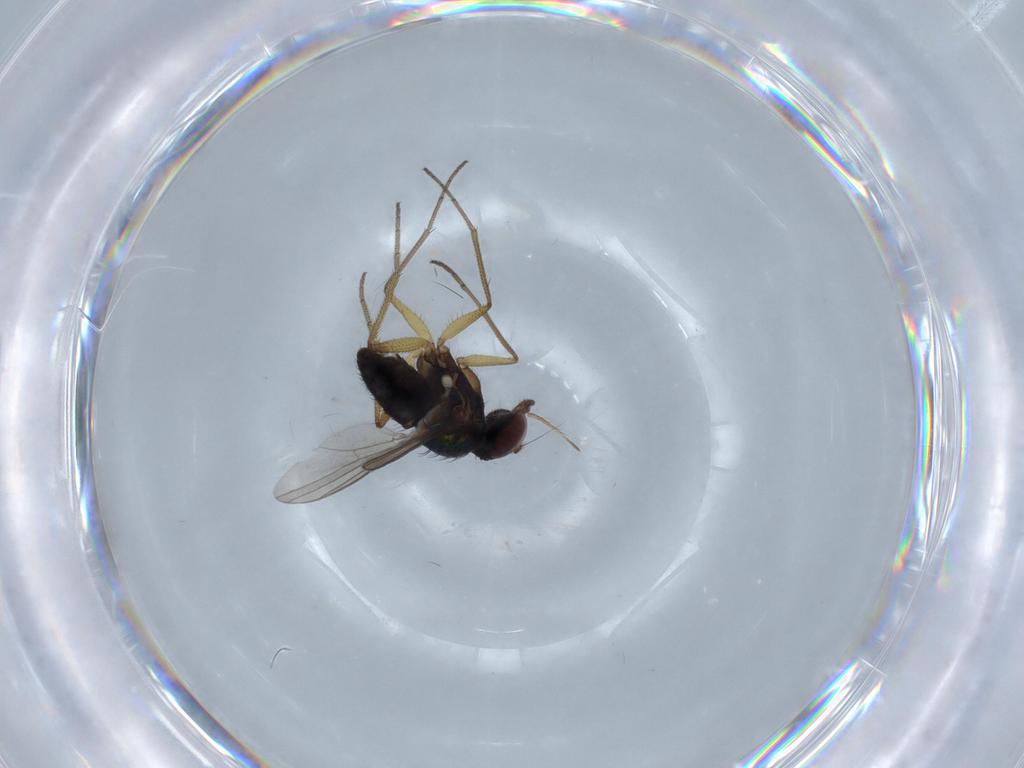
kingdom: Animalia
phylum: Arthropoda
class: Insecta
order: Diptera
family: Dolichopodidae
